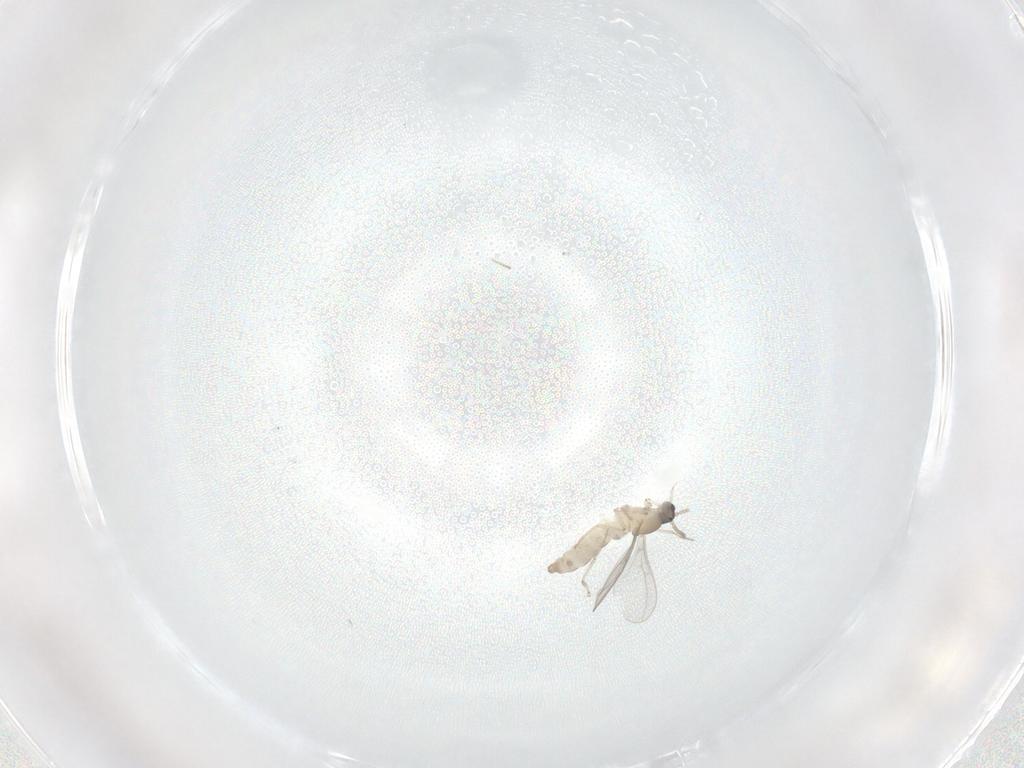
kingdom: Animalia
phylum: Arthropoda
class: Insecta
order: Diptera
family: Cecidomyiidae
